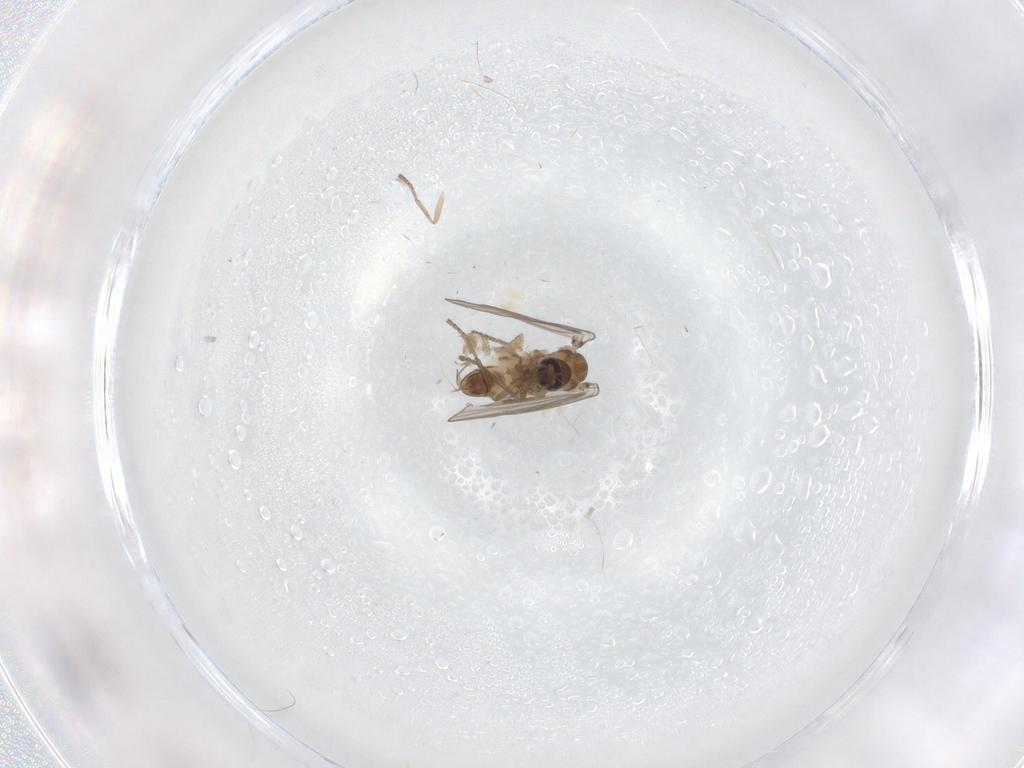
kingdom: Animalia
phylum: Arthropoda
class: Insecta
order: Diptera
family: Psychodidae
